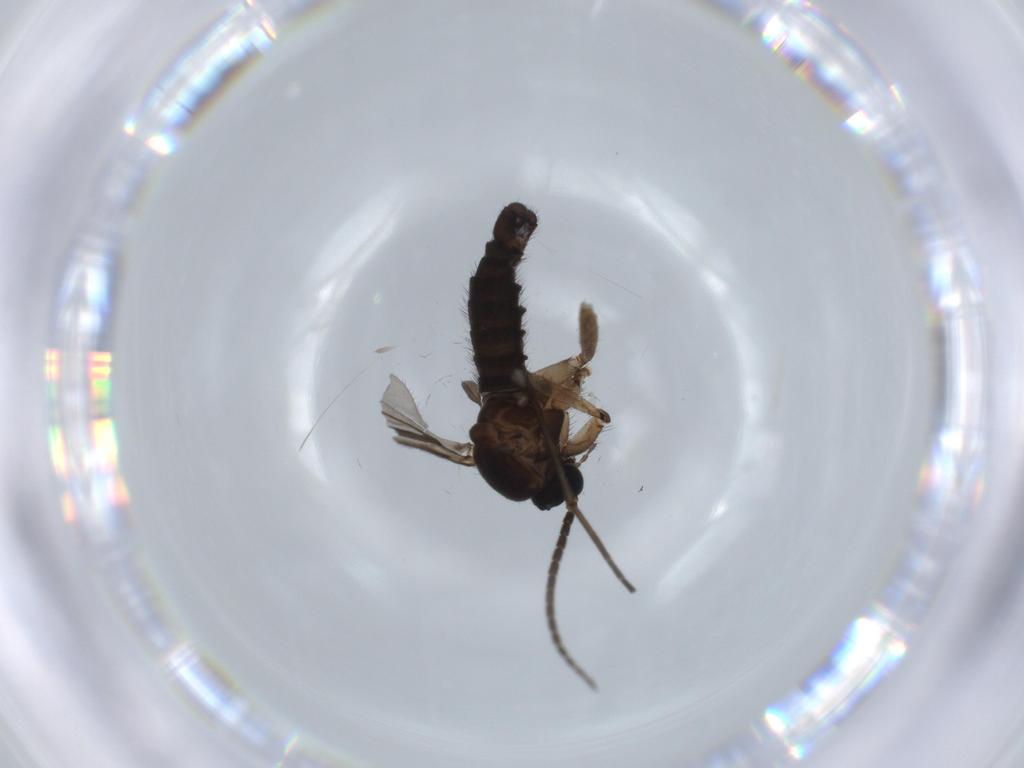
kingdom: Animalia
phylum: Arthropoda
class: Insecta
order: Diptera
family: Sciaridae
